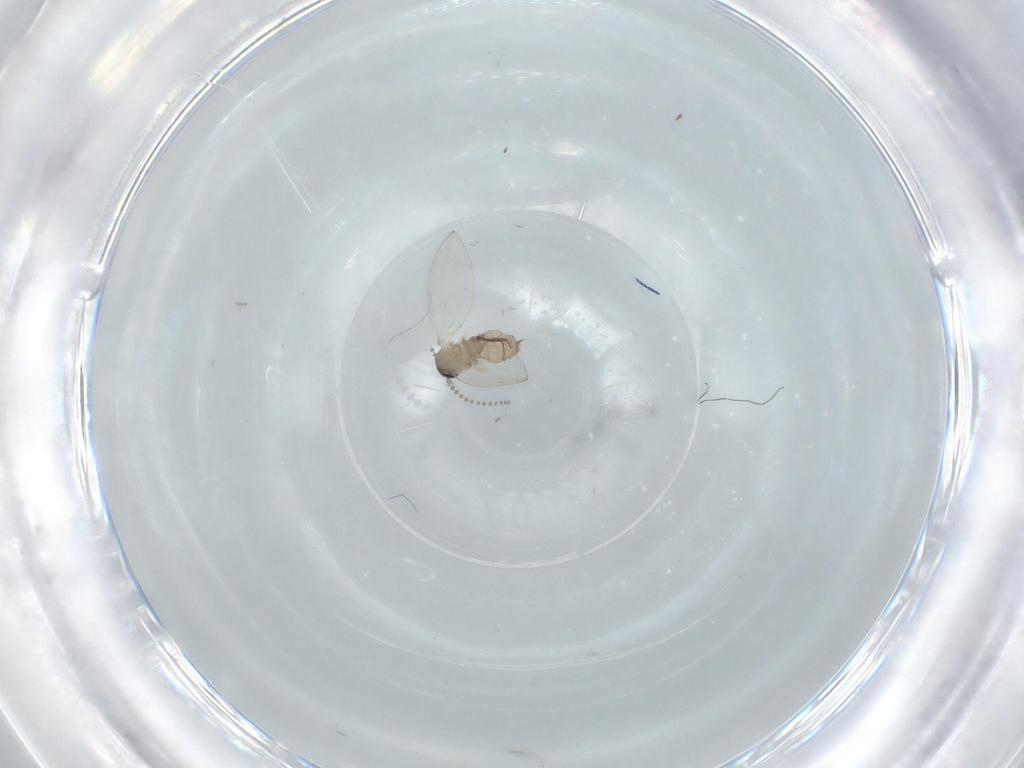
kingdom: Animalia
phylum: Arthropoda
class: Insecta
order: Diptera
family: Psychodidae
